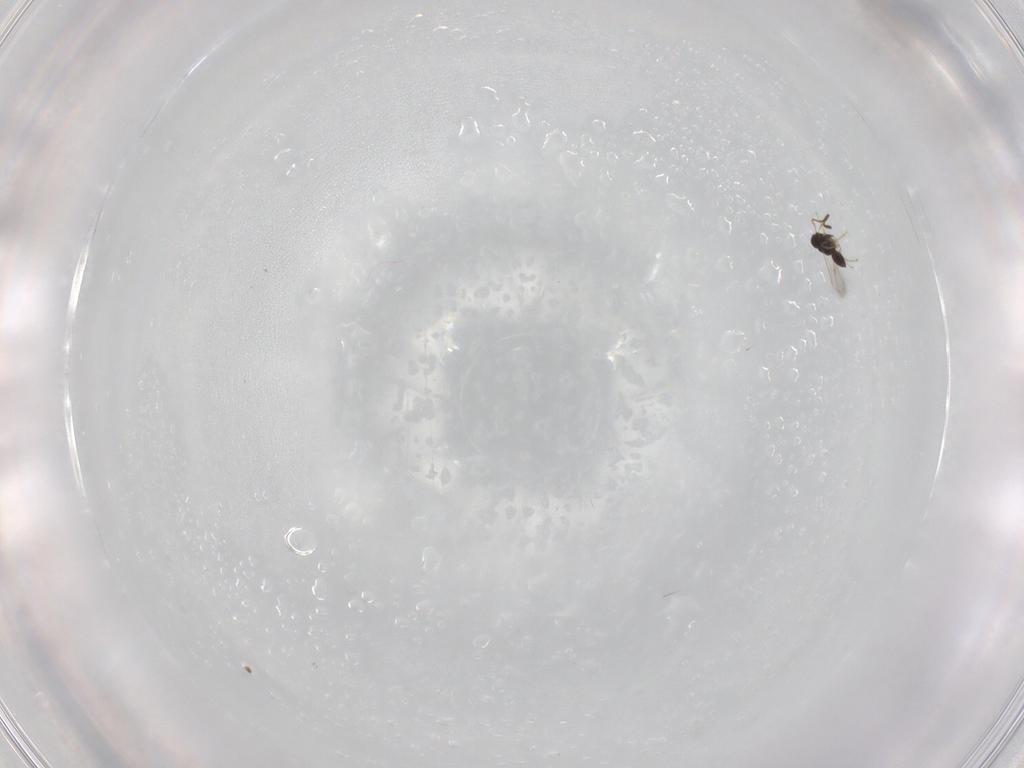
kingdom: Animalia
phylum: Arthropoda
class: Insecta
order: Hymenoptera
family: Scelionidae
